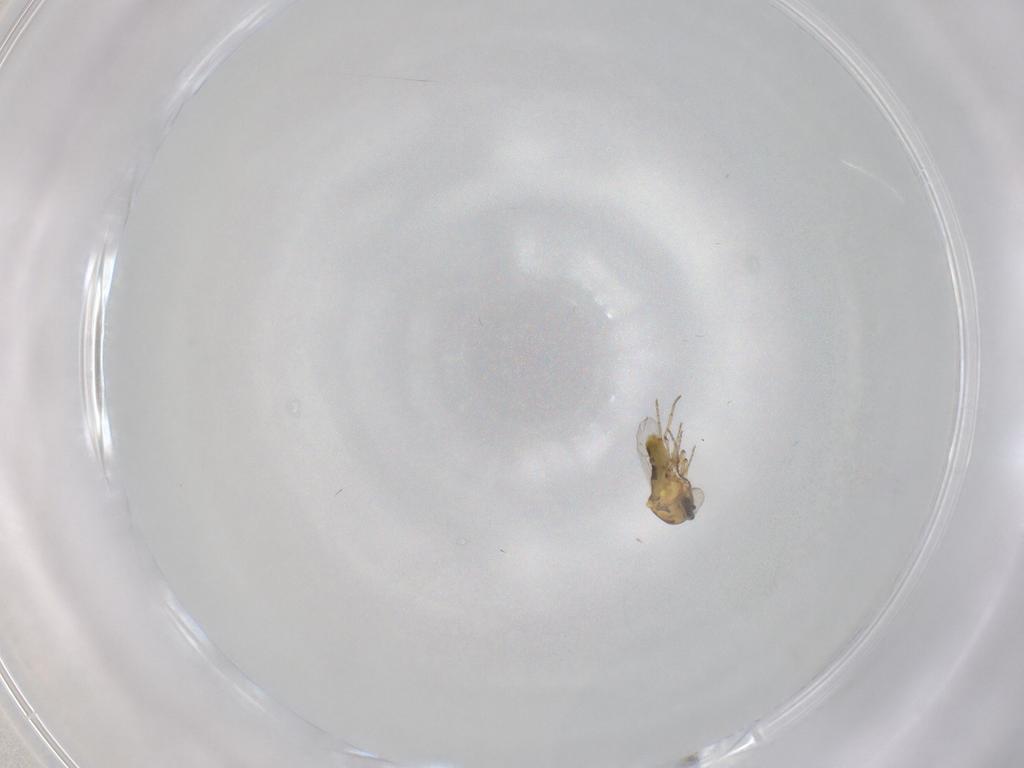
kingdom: Animalia
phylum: Arthropoda
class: Insecta
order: Diptera
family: Ceratopogonidae
